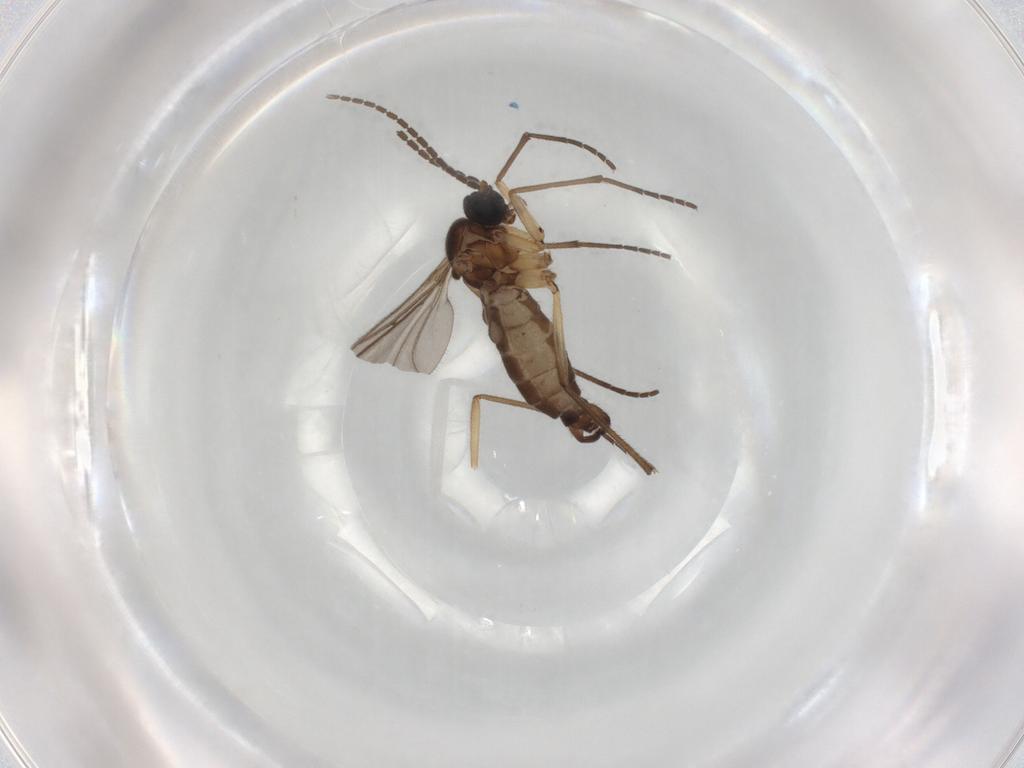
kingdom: Animalia
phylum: Arthropoda
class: Insecta
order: Diptera
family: Sciaridae
